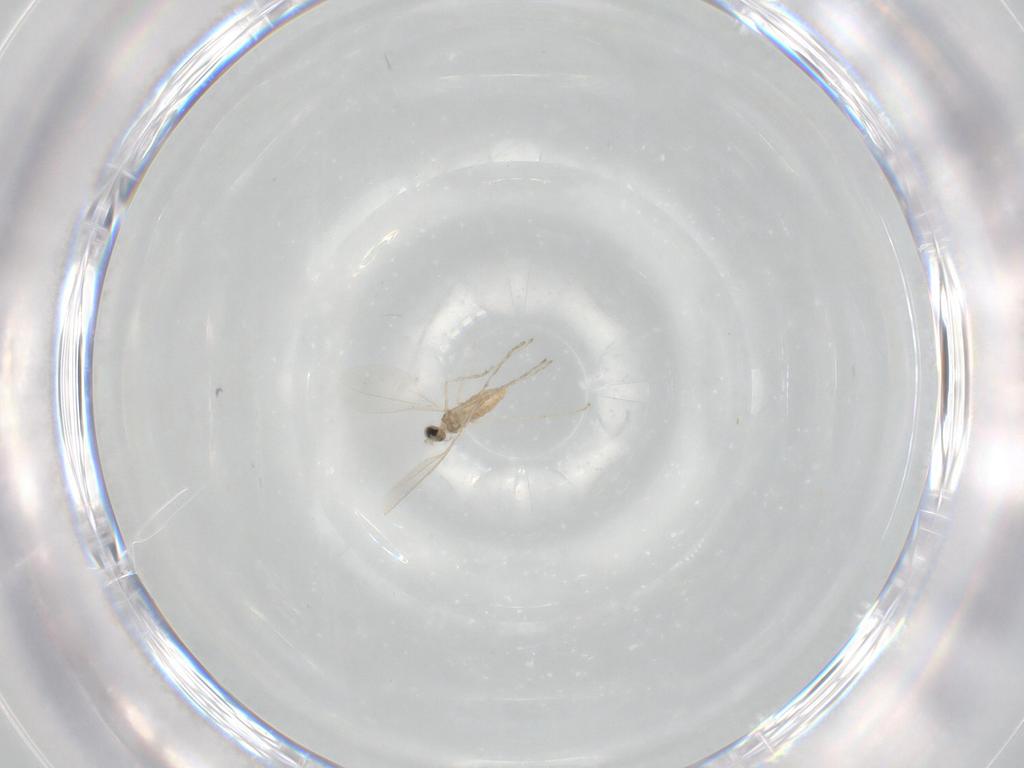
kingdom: Animalia
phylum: Arthropoda
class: Insecta
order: Diptera
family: Cecidomyiidae
